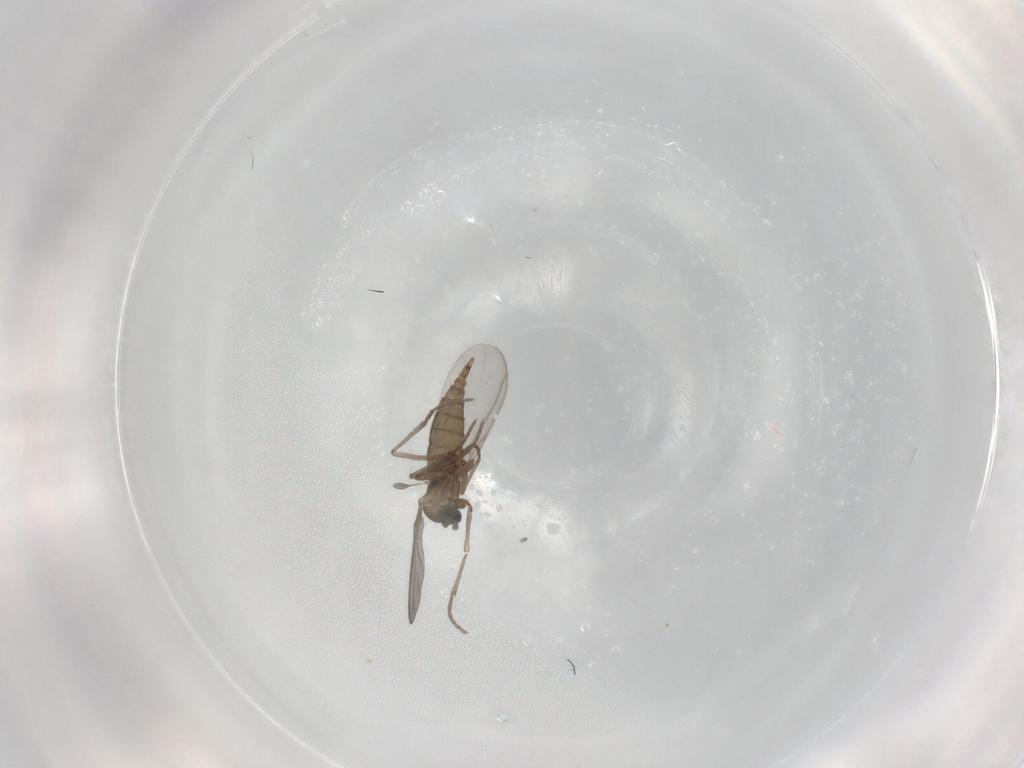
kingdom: Animalia
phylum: Arthropoda
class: Insecta
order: Diptera
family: Sciaridae
